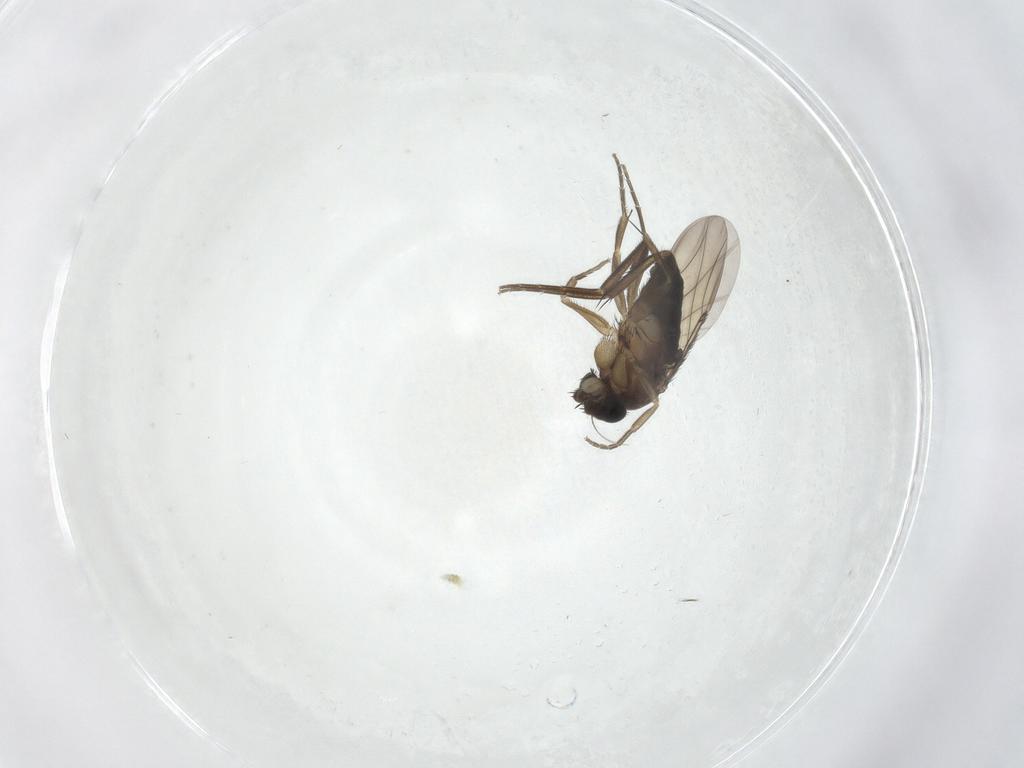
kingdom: Animalia
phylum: Arthropoda
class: Insecta
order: Diptera
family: Phoridae
